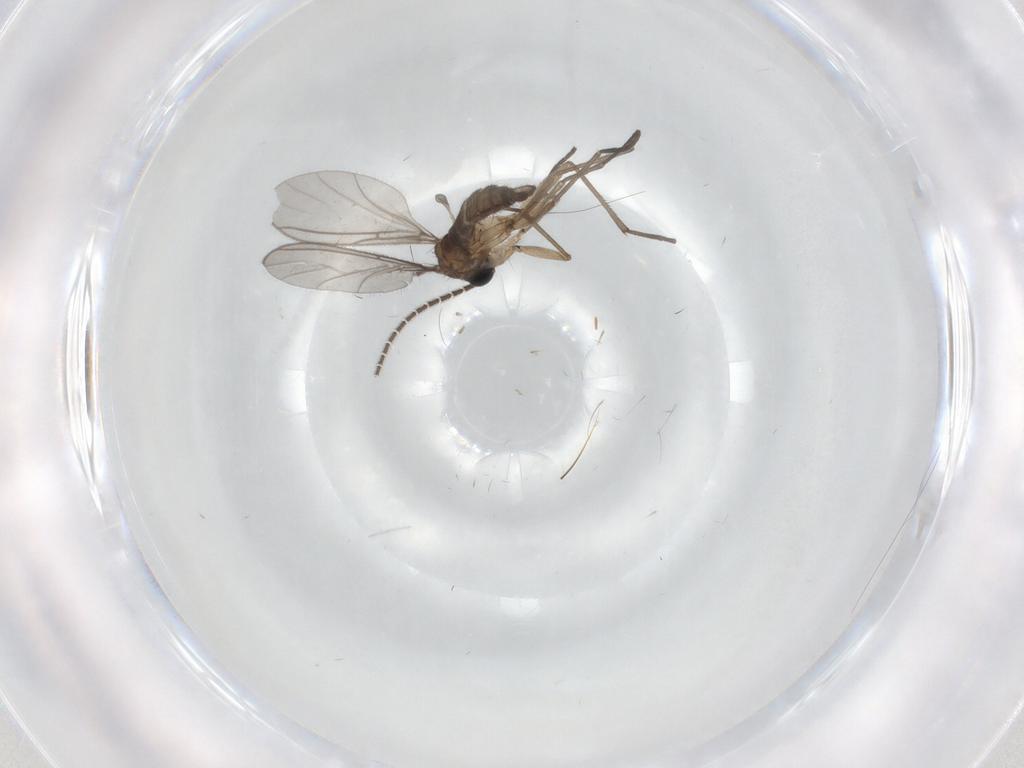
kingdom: Animalia
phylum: Arthropoda
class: Insecta
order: Diptera
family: Sciaridae
